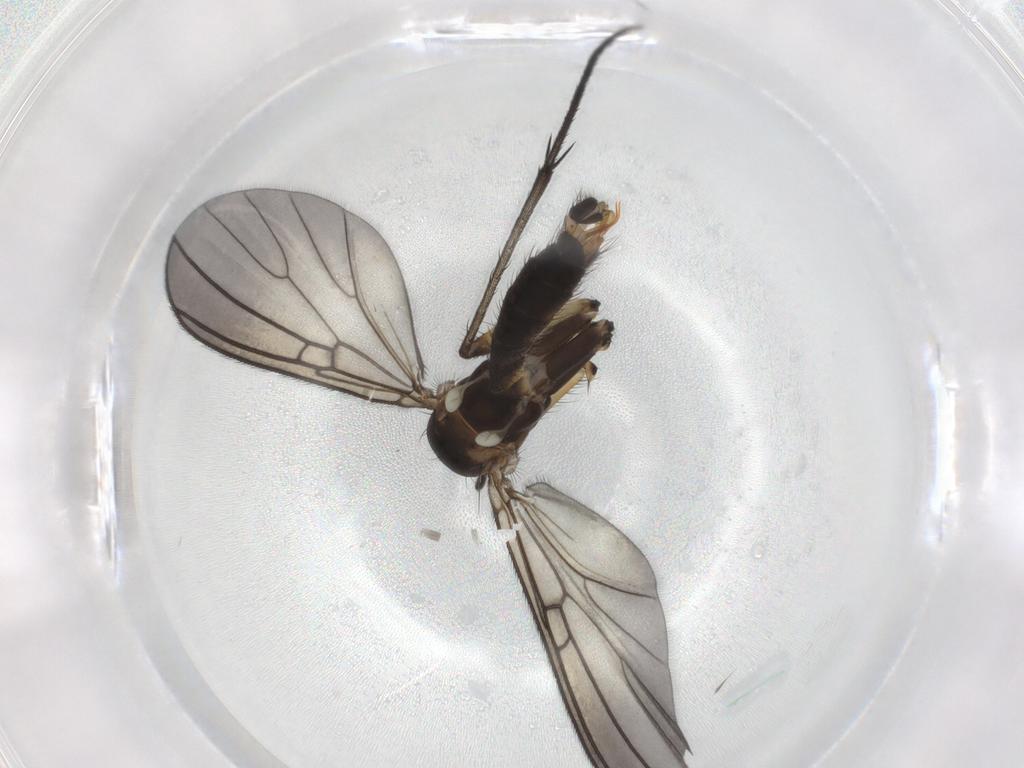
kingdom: Animalia
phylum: Arthropoda
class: Insecta
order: Diptera
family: Mycetophilidae
